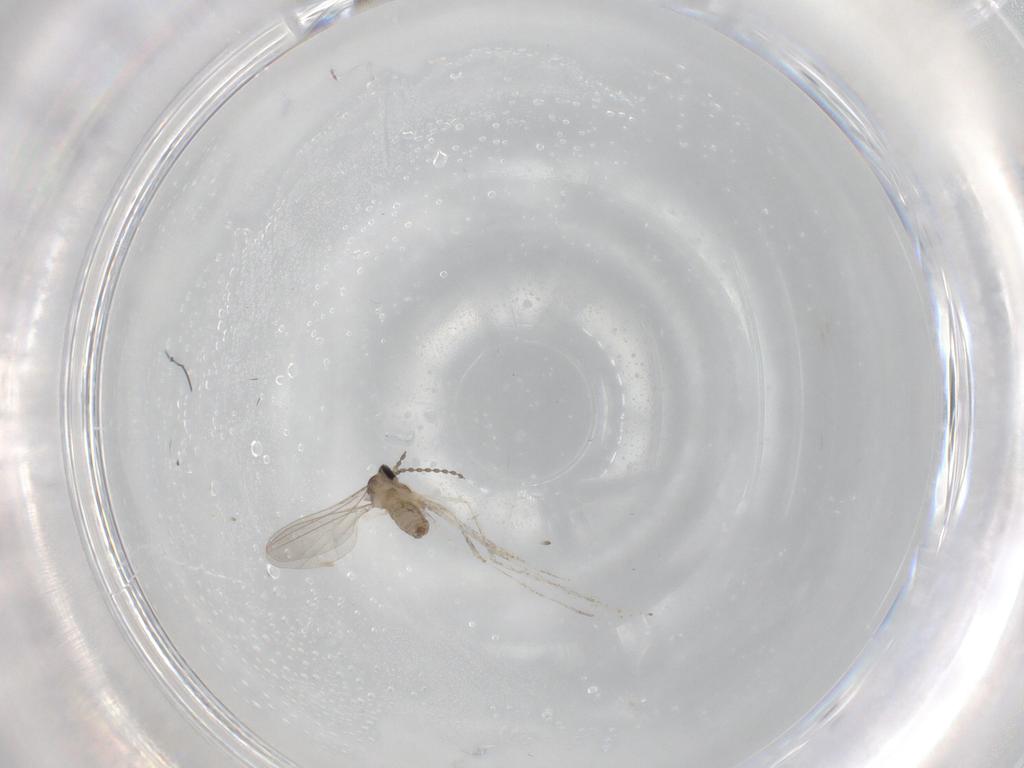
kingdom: Animalia
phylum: Arthropoda
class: Insecta
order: Diptera
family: Cecidomyiidae
